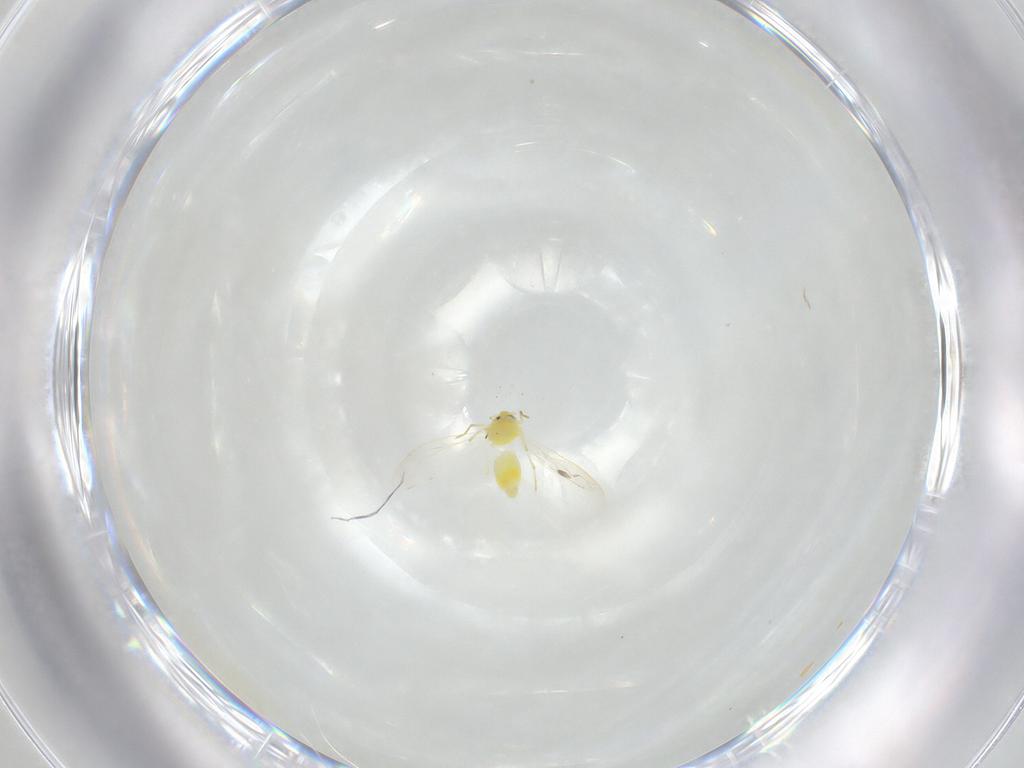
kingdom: Animalia
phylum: Arthropoda
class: Insecta
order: Hemiptera
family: Aleyrodidae
